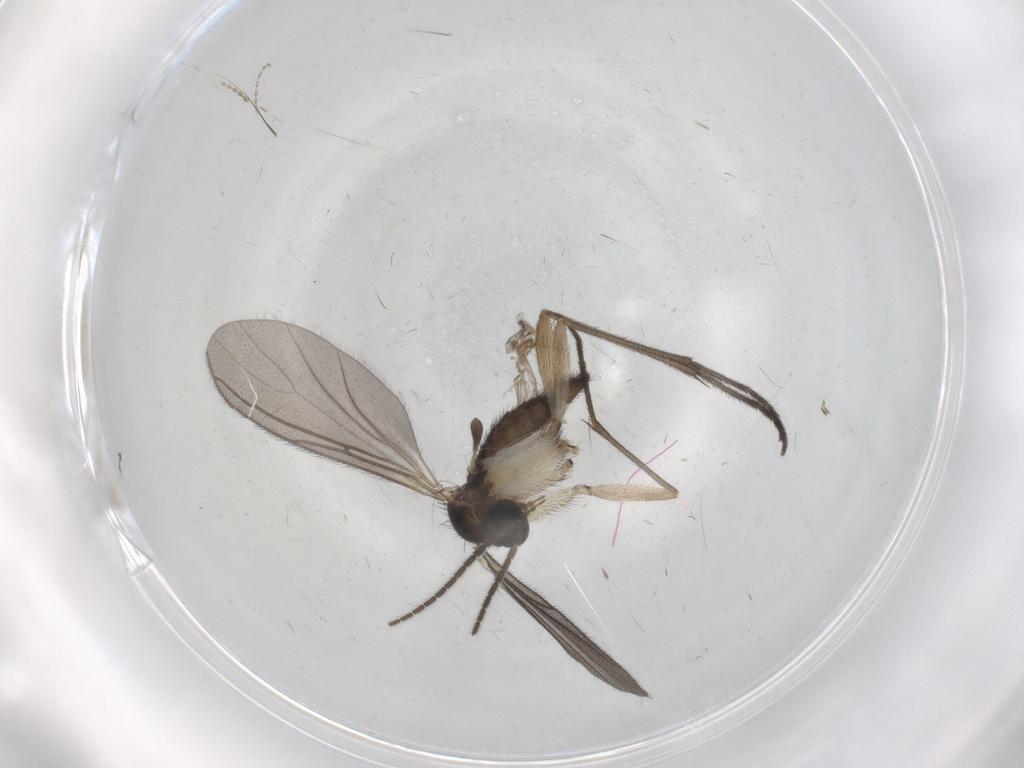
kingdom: Animalia
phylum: Arthropoda
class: Insecta
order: Diptera
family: Sciaridae
